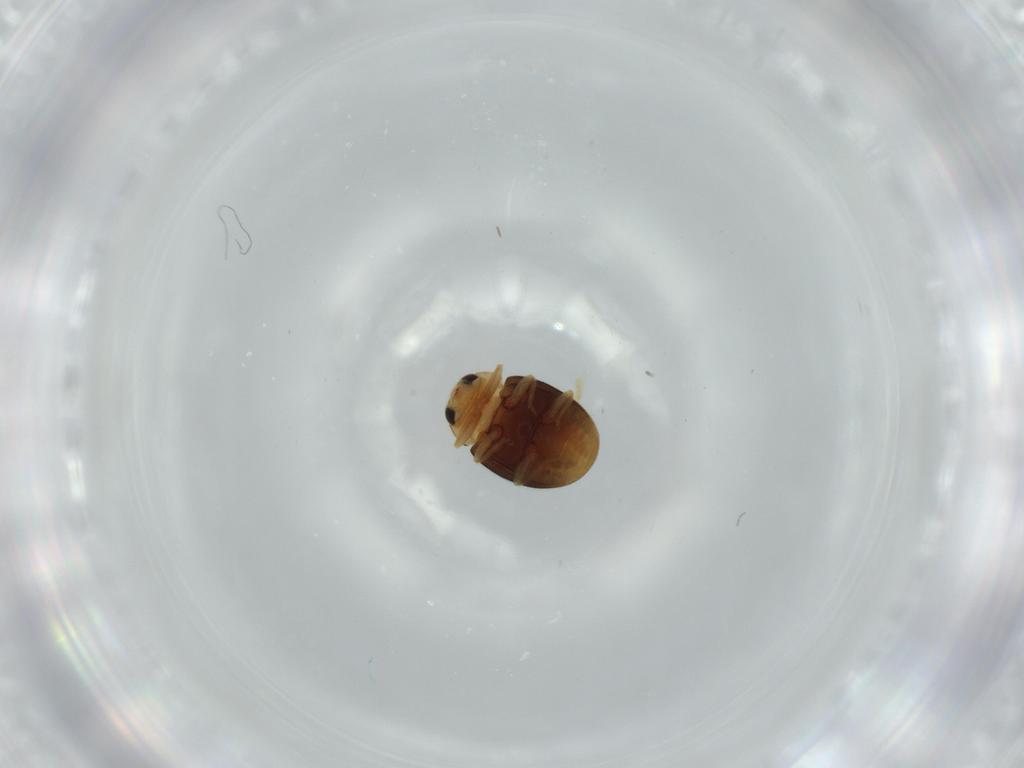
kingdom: Animalia
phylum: Arthropoda
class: Insecta
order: Coleoptera
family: Coccinellidae
